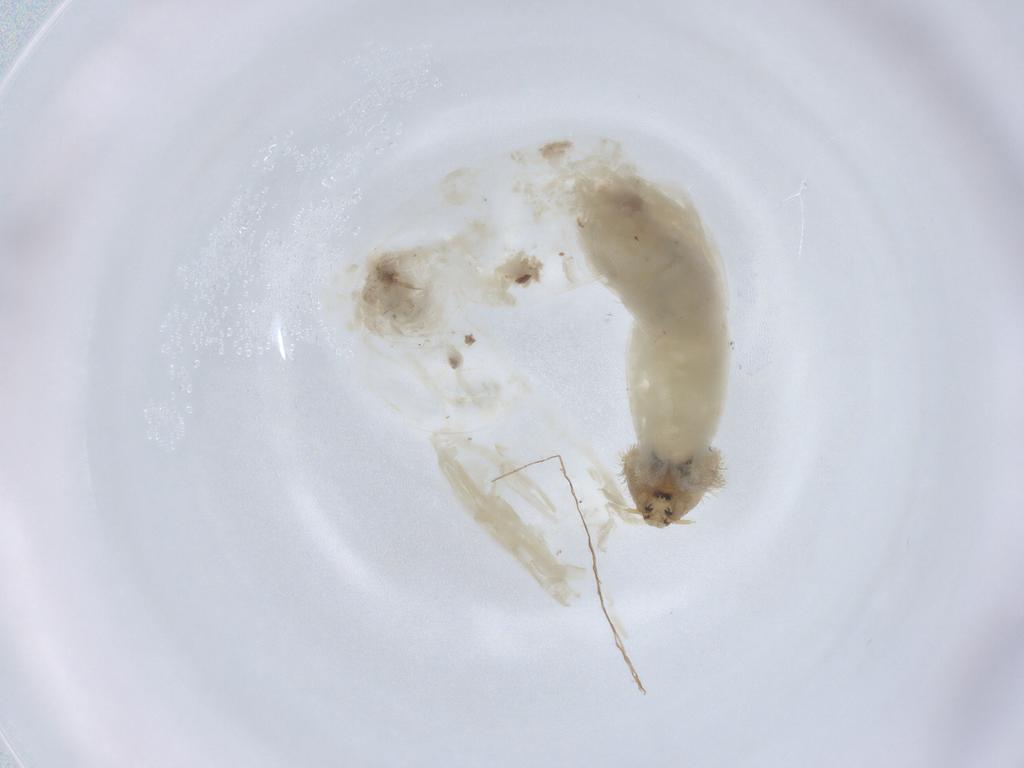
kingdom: Animalia
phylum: Arthropoda
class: Insecta
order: Diptera
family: Chironomidae
